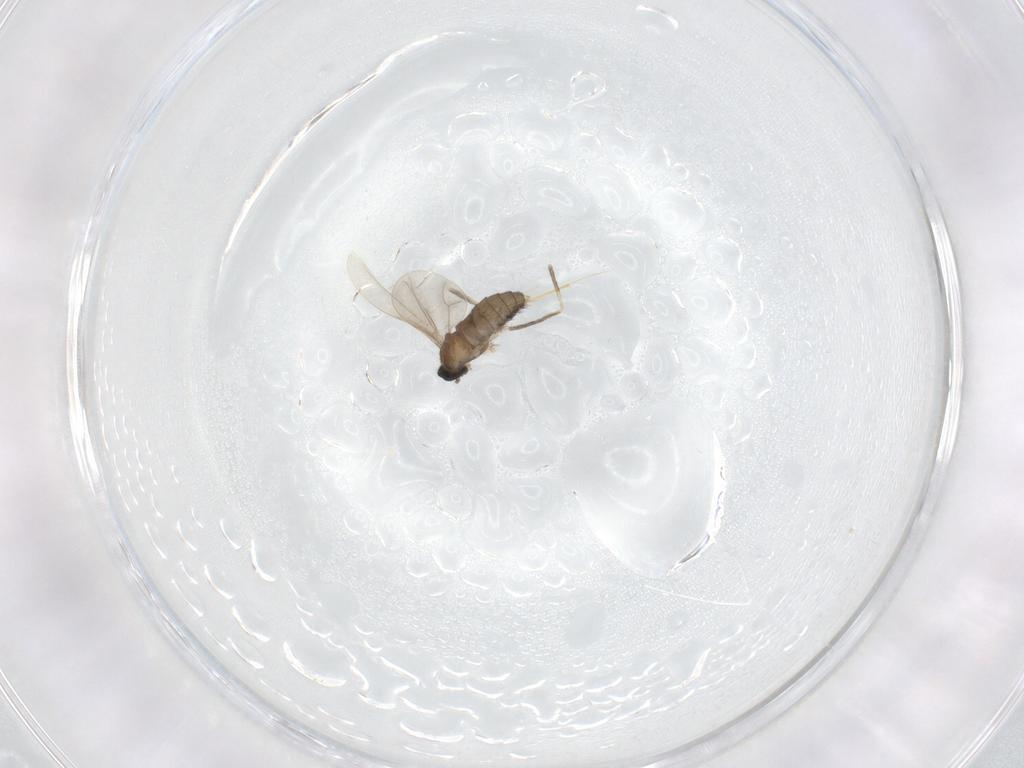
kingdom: Animalia
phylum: Arthropoda
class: Insecta
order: Diptera
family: Cecidomyiidae
